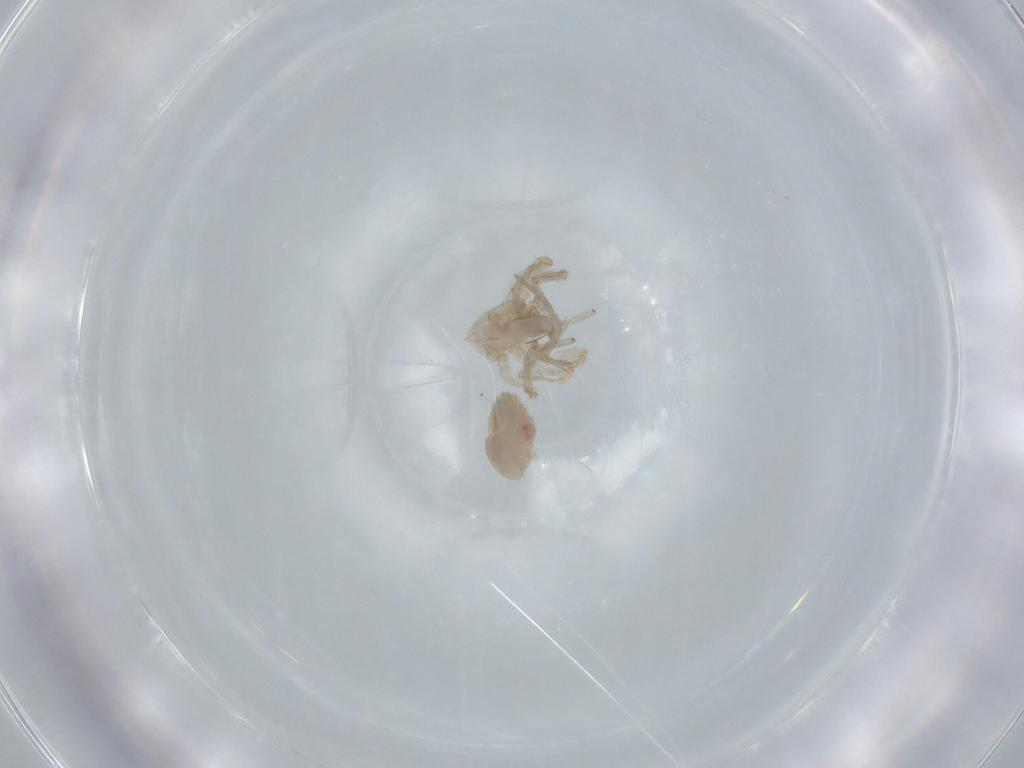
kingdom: Animalia
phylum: Arthropoda
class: Arachnida
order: Araneae
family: Oonopidae
